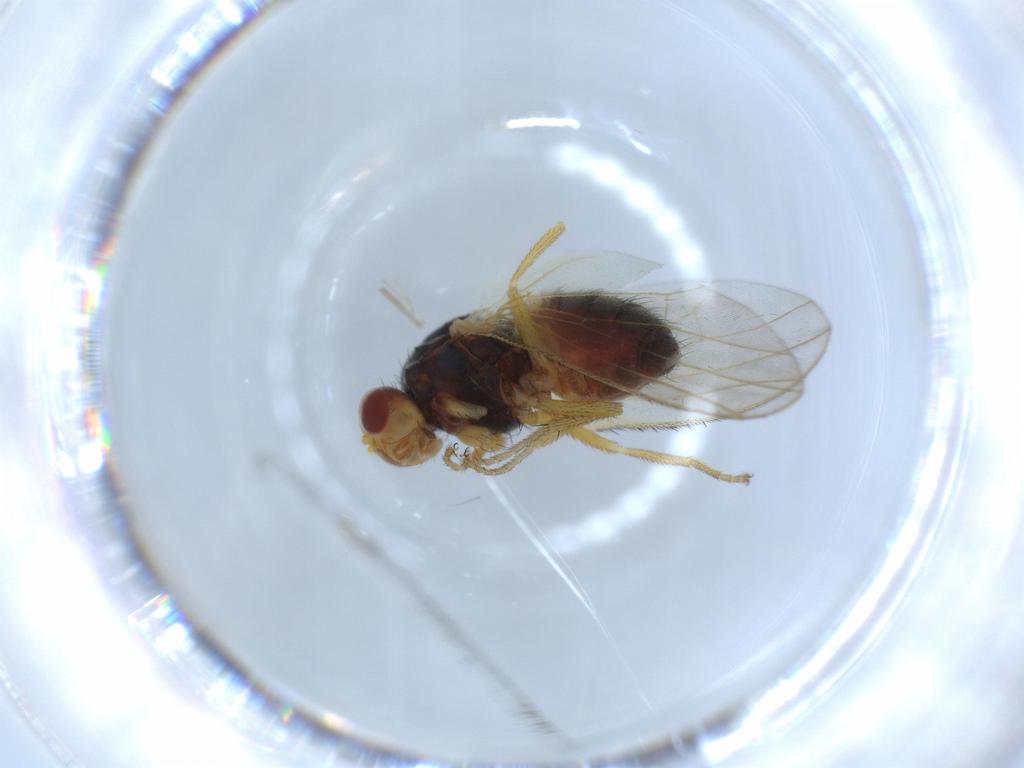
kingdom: Animalia
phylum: Arthropoda
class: Insecta
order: Diptera
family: Heleomyzidae
